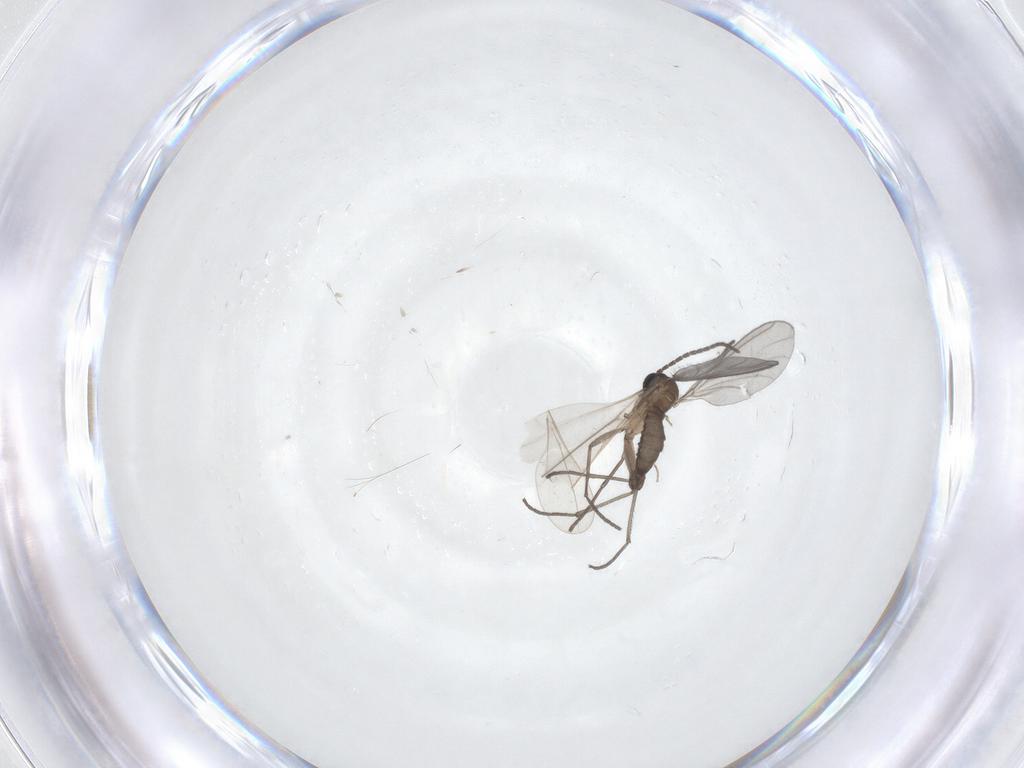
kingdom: Animalia
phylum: Arthropoda
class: Insecta
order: Diptera
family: Sciaridae
